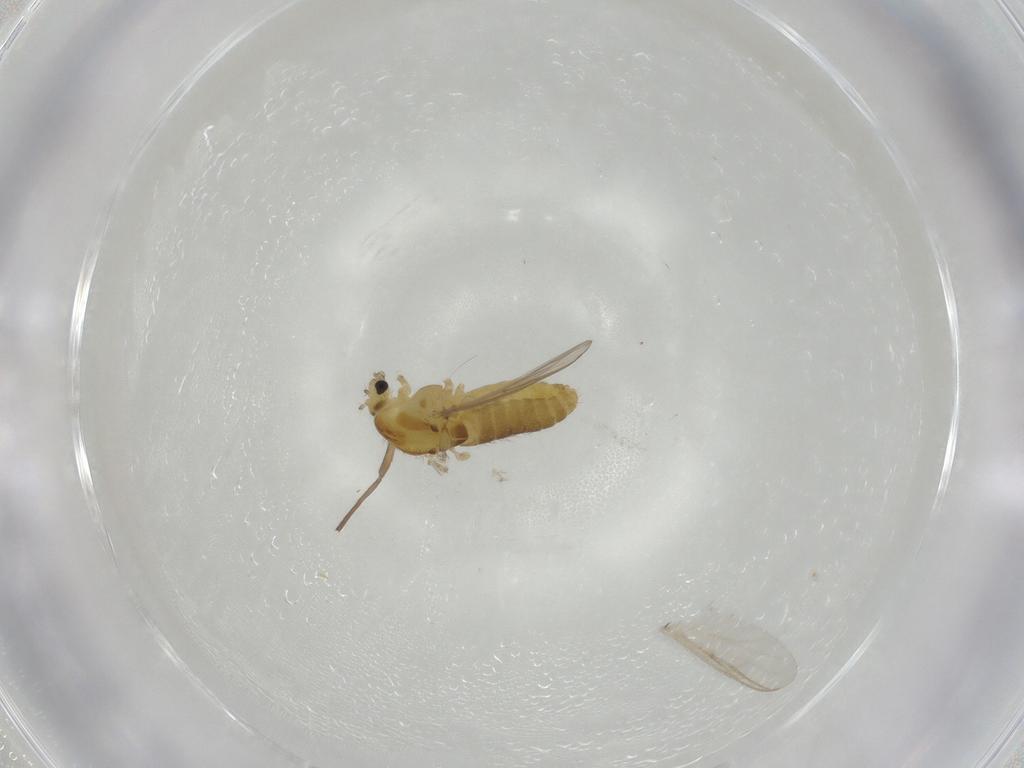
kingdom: Animalia
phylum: Arthropoda
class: Insecta
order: Diptera
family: Chironomidae
